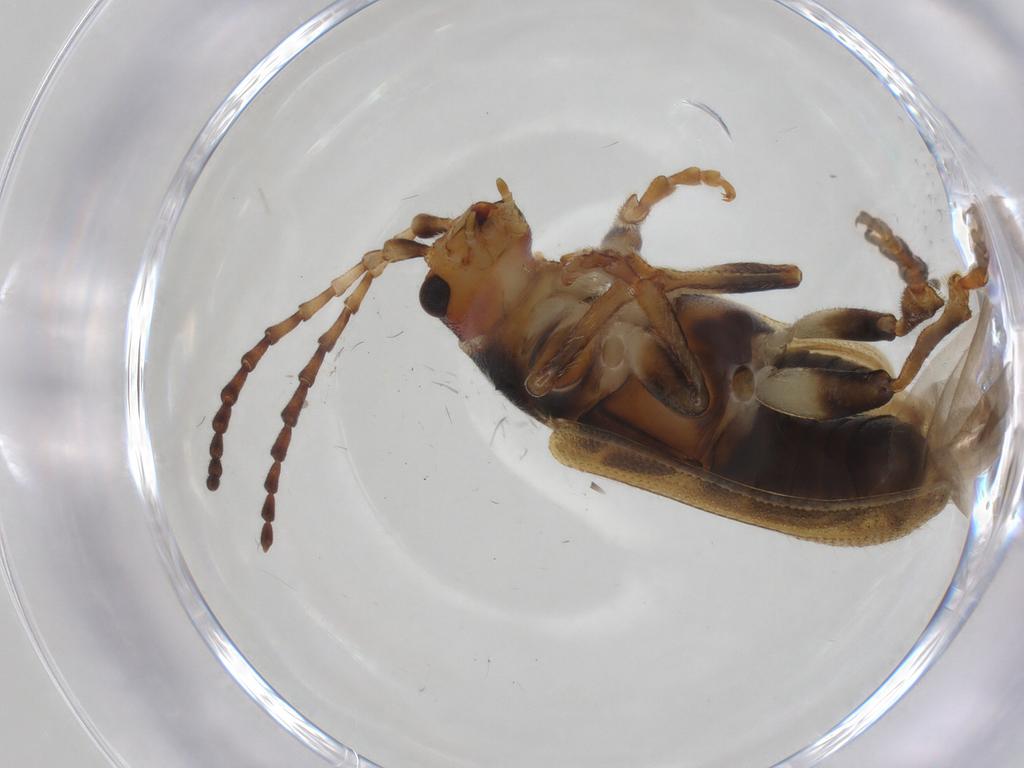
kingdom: Animalia
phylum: Arthropoda
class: Insecta
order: Coleoptera
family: Chrysomelidae
